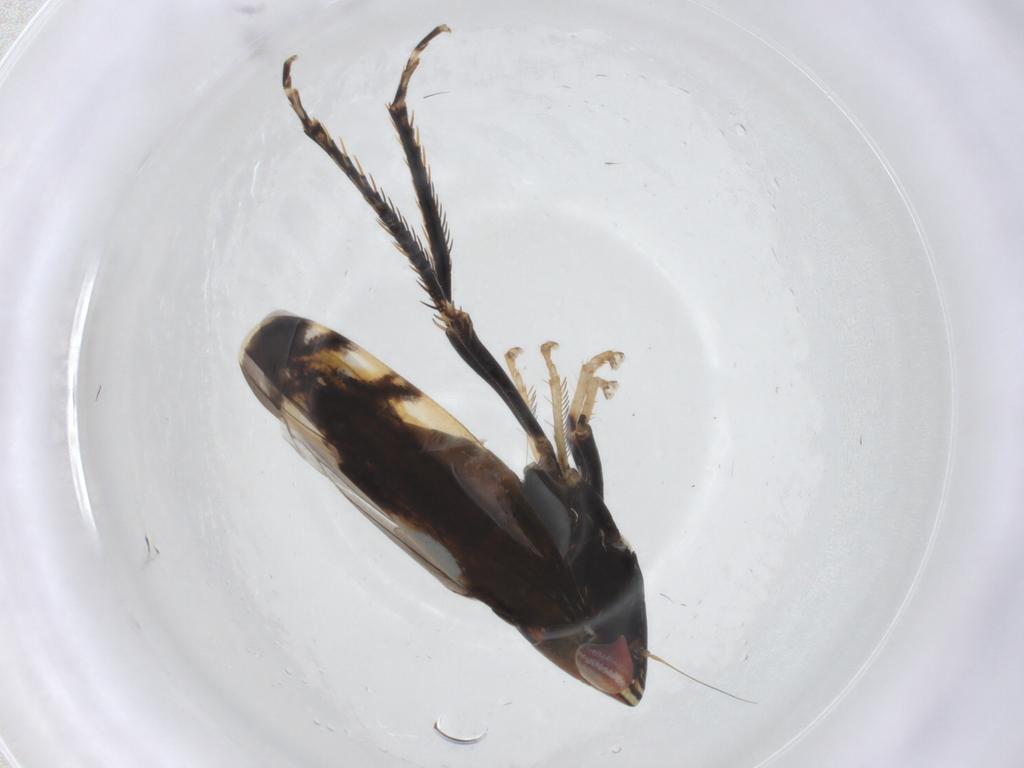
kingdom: Animalia
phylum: Arthropoda
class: Insecta
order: Hemiptera
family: Cicadellidae
